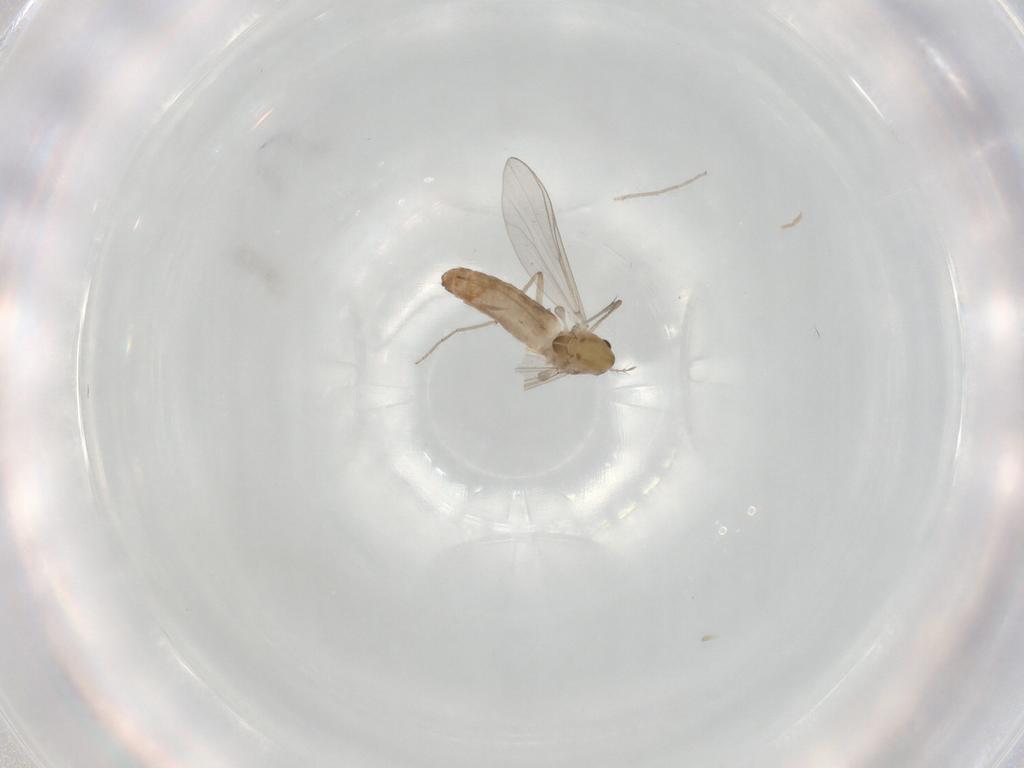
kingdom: Animalia
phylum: Arthropoda
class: Insecta
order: Diptera
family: Chironomidae
